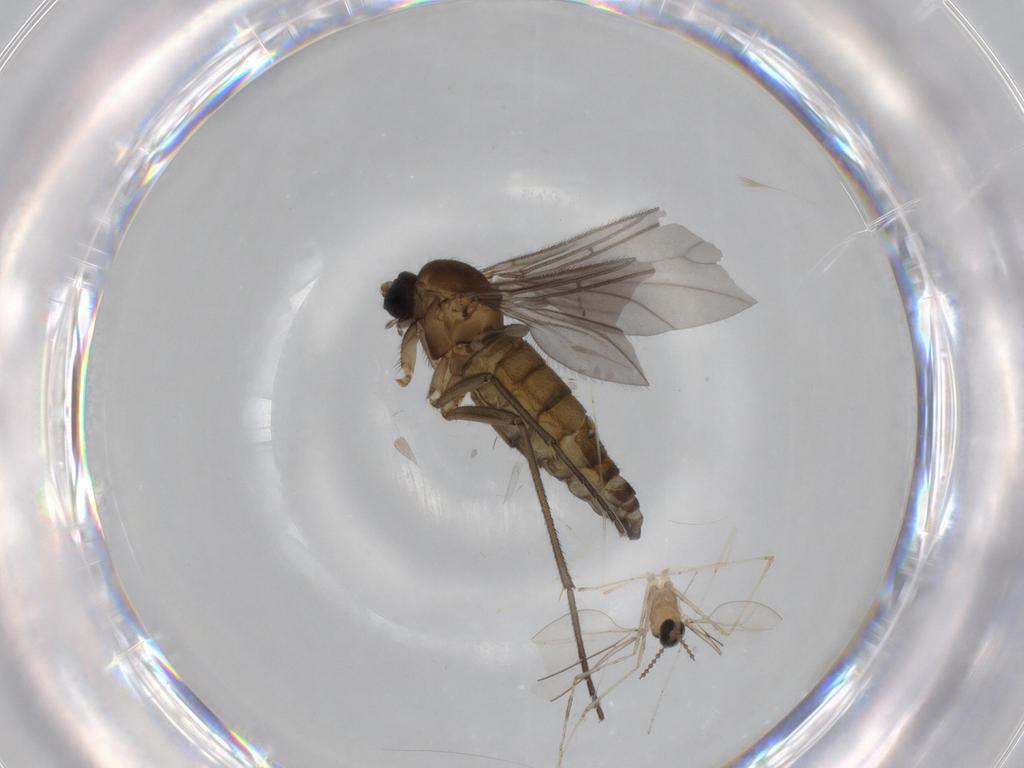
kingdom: Animalia
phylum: Arthropoda
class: Insecta
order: Diptera
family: Sciaridae
